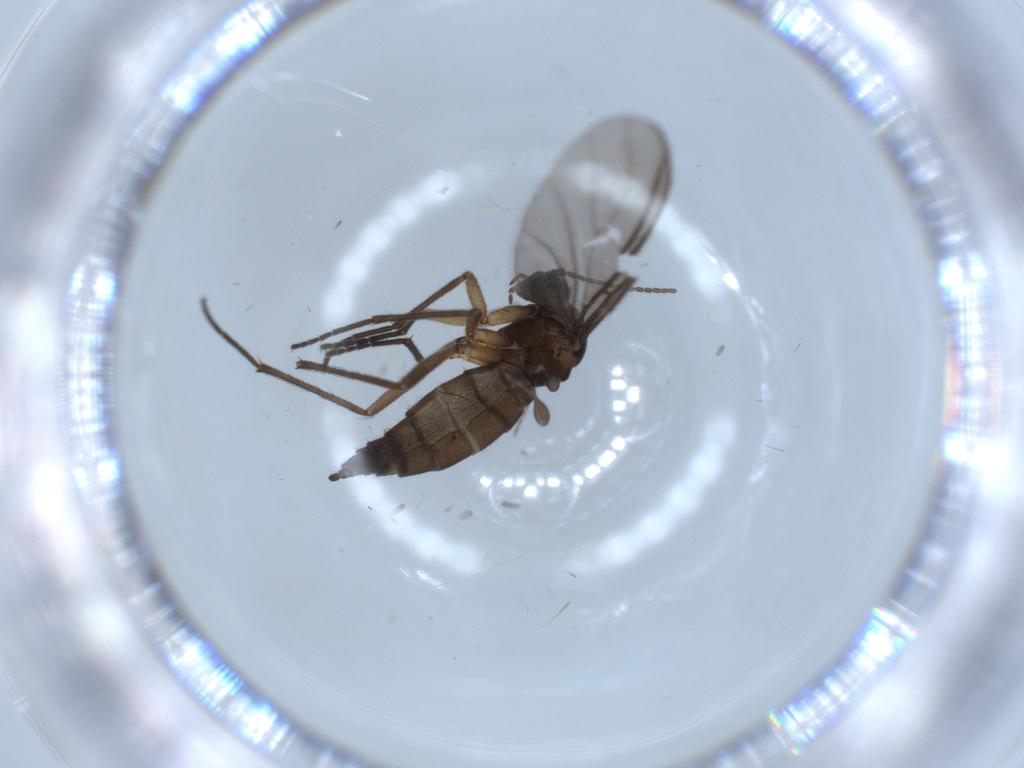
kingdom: Animalia
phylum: Arthropoda
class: Insecta
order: Diptera
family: Sciaridae
